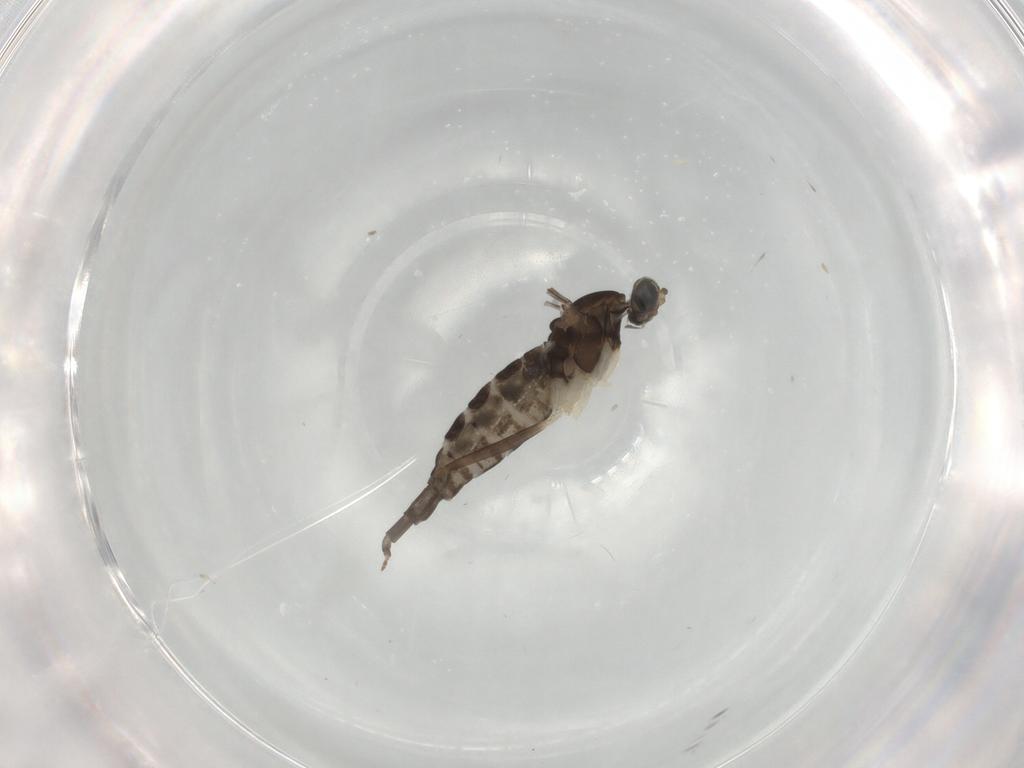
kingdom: Animalia
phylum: Arthropoda
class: Insecta
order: Diptera
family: Cecidomyiidae
